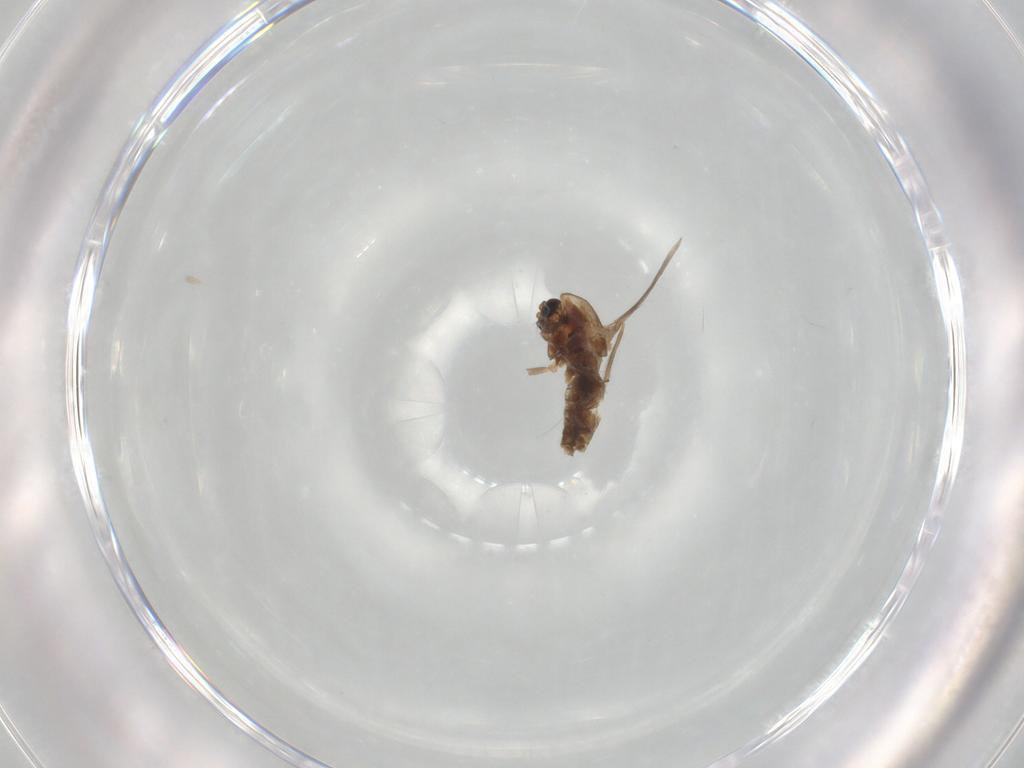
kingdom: Animalia
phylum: Arthropoda
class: Insecta
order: Diptera
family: Chironomidae
